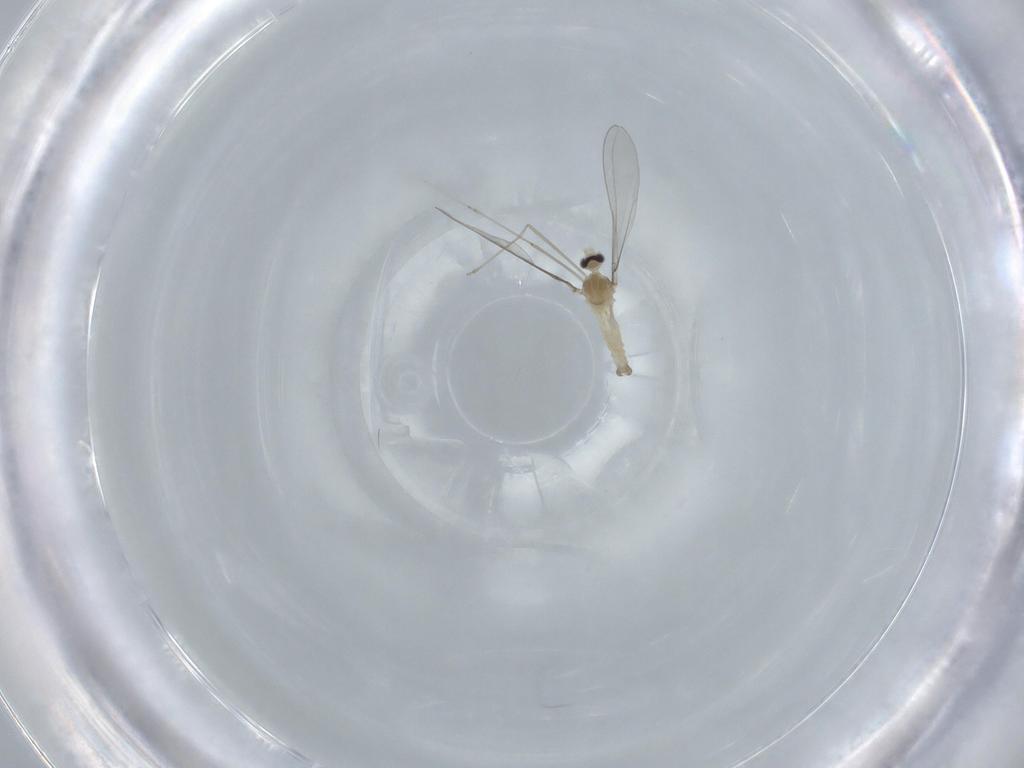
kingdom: Animalia
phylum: Arthropoda
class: Insecta
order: Diptera
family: Cecidomyiidae
